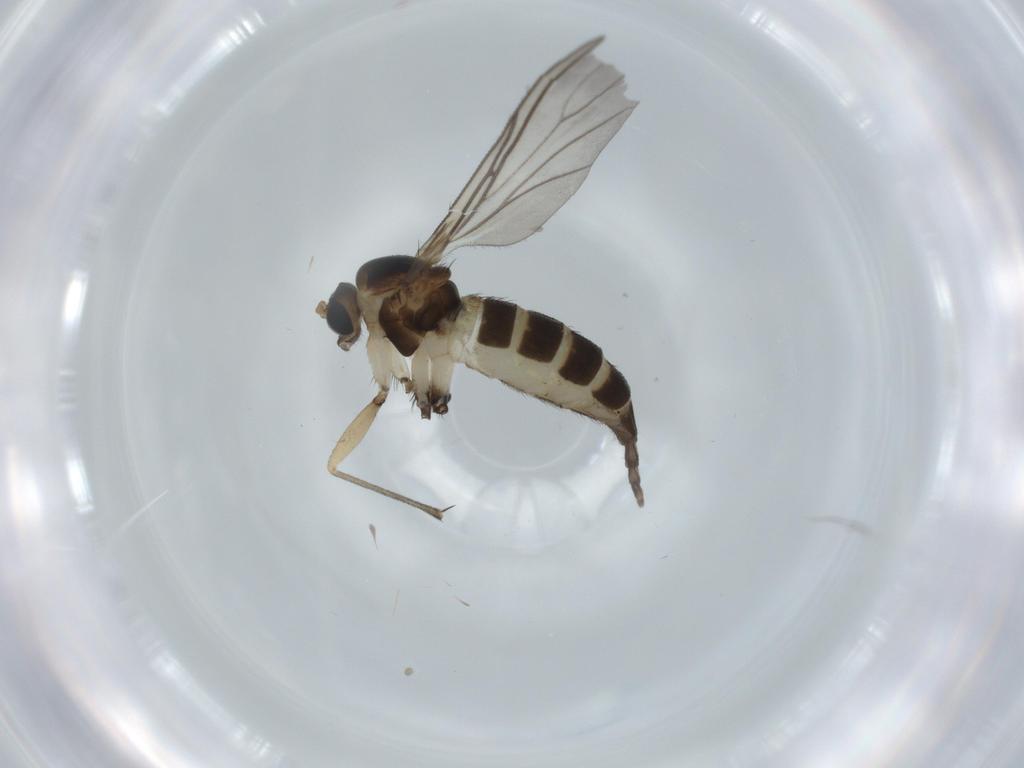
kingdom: Animalia
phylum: Arthropoda
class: Insecta
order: Diptera
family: Sciaridae
